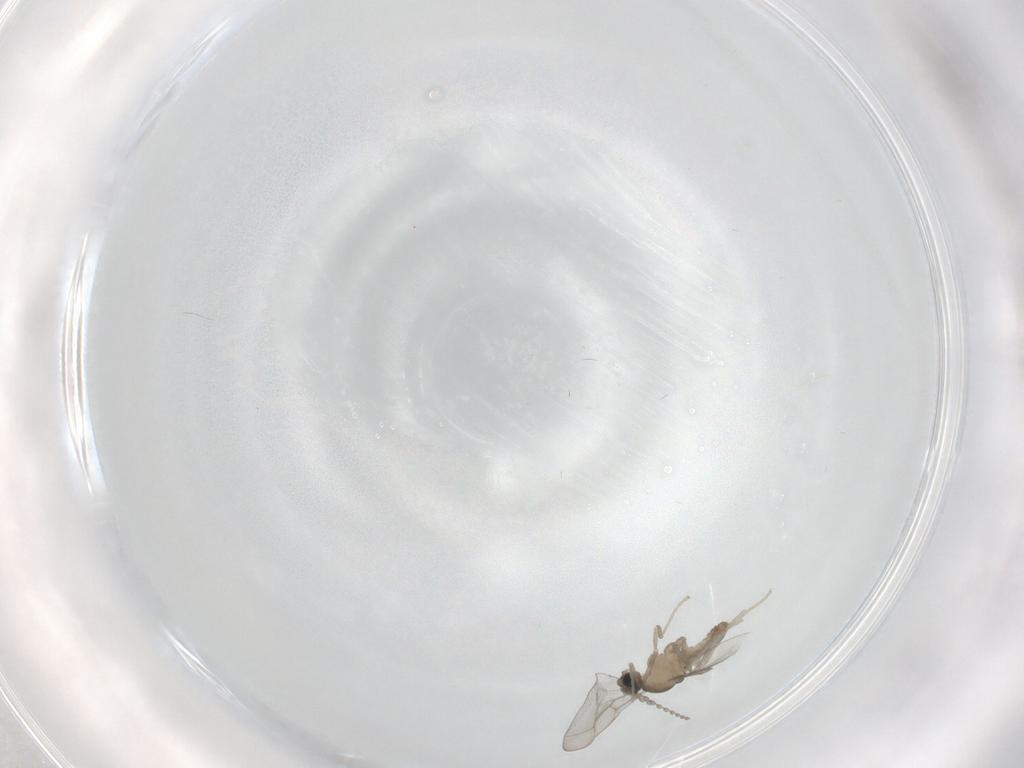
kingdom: Animalia
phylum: Arthropoda
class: Insecta
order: Diptera
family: Cecidomyiidae
